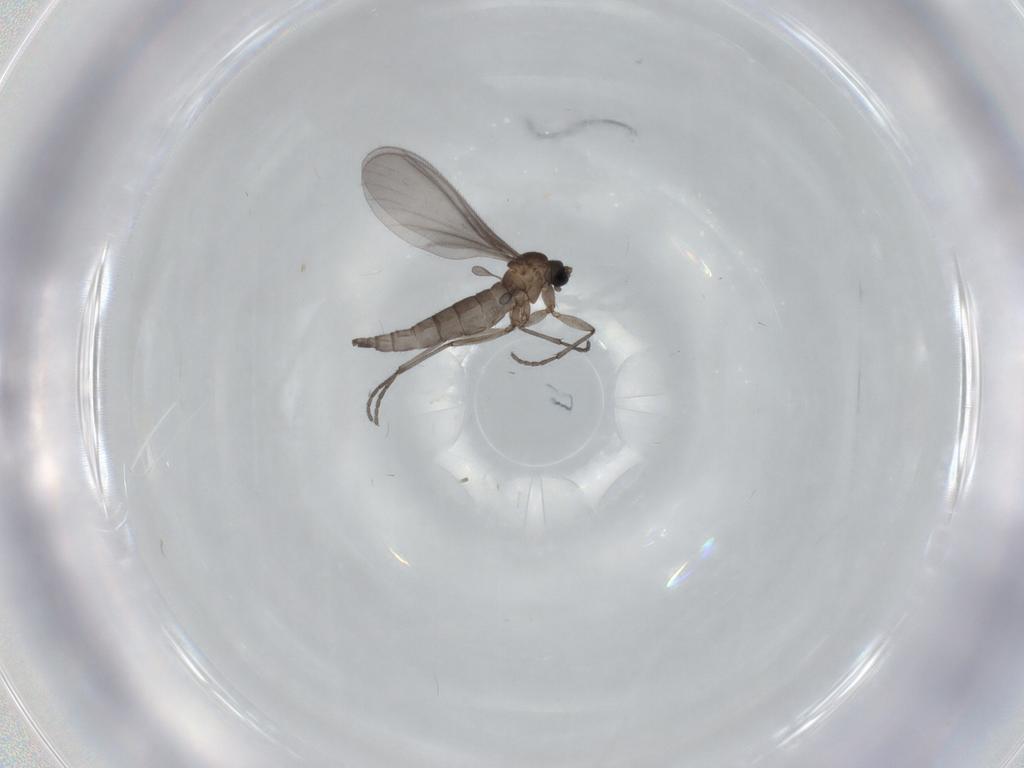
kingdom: Animalia
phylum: Arthropoda
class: Insecta
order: Diptera
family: Sciaridae
